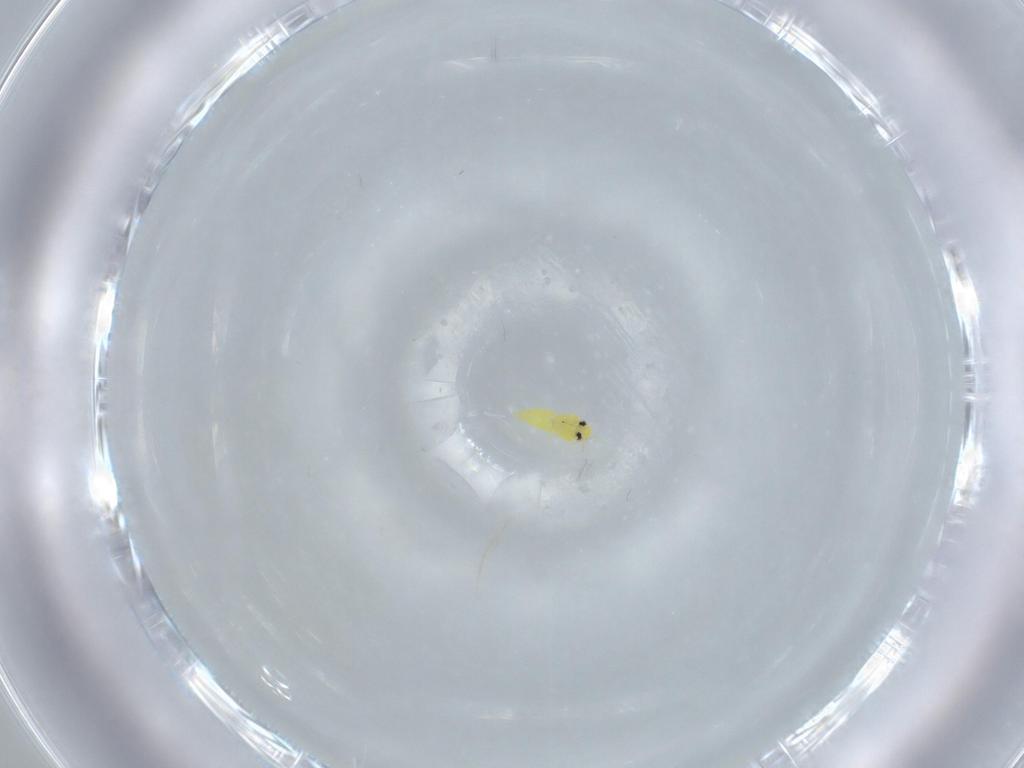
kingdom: Animalia
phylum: Arthropoda
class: Insecta
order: Hemiptera
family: Aleyrodidae
